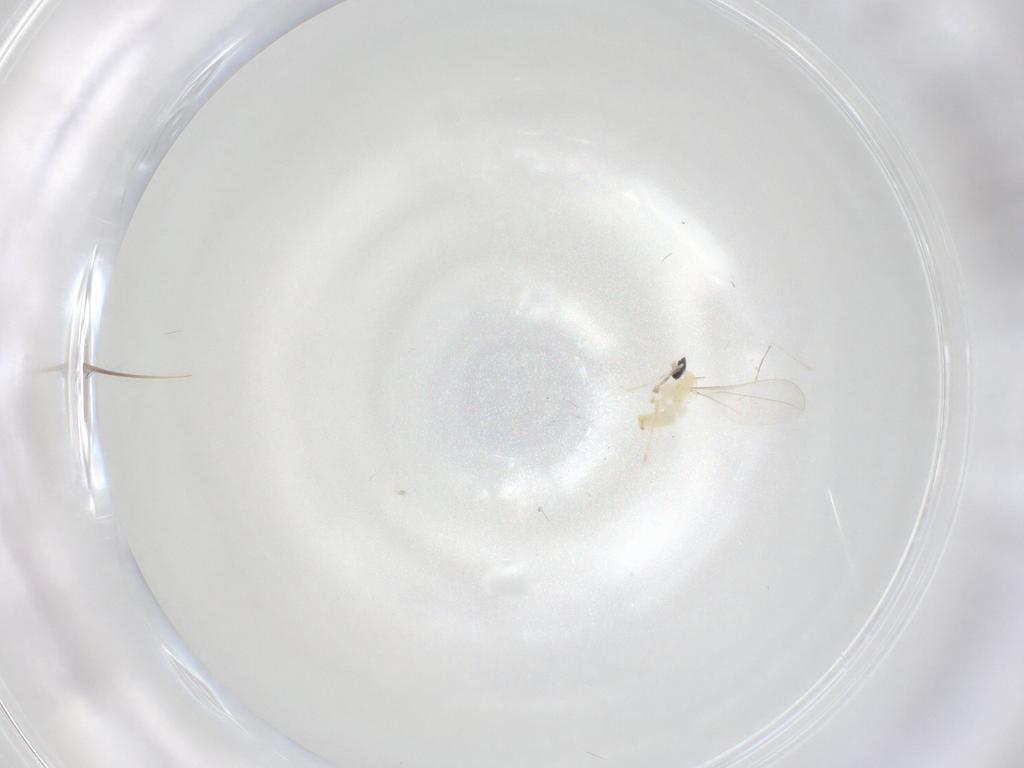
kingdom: Animalia
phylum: Arthropoda
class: Insecta
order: Diptera
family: Cecidomyiidae
